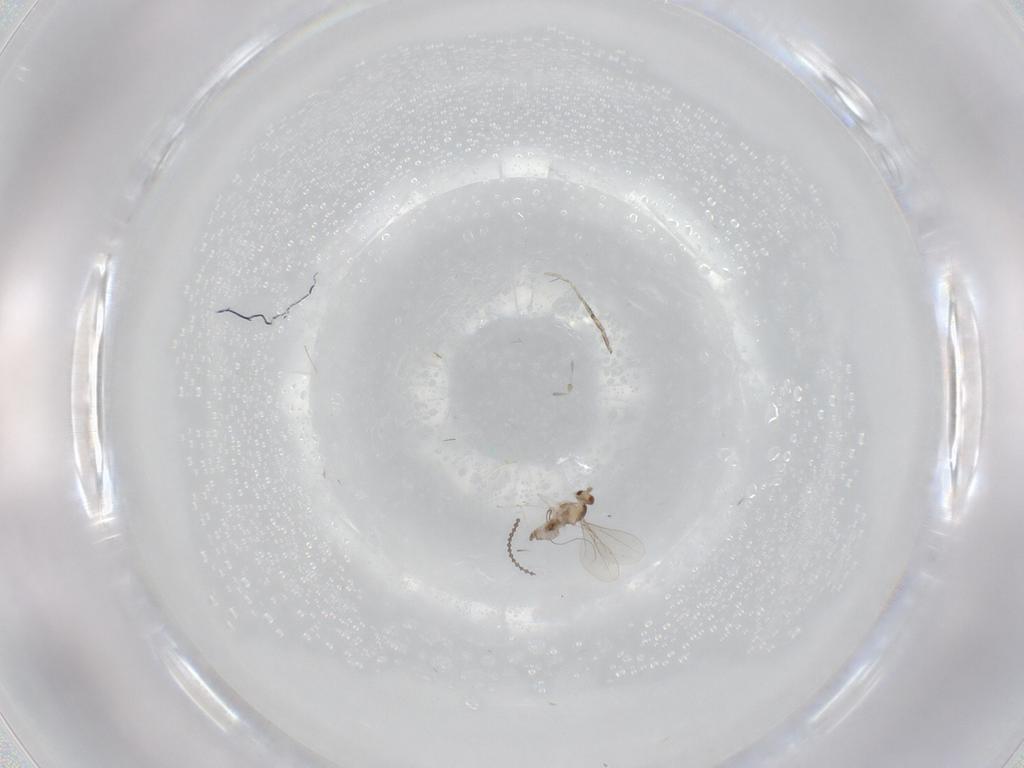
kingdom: Animalia
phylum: Arthropoda
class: Insecta
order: Diptera
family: Cecidomyiidae
